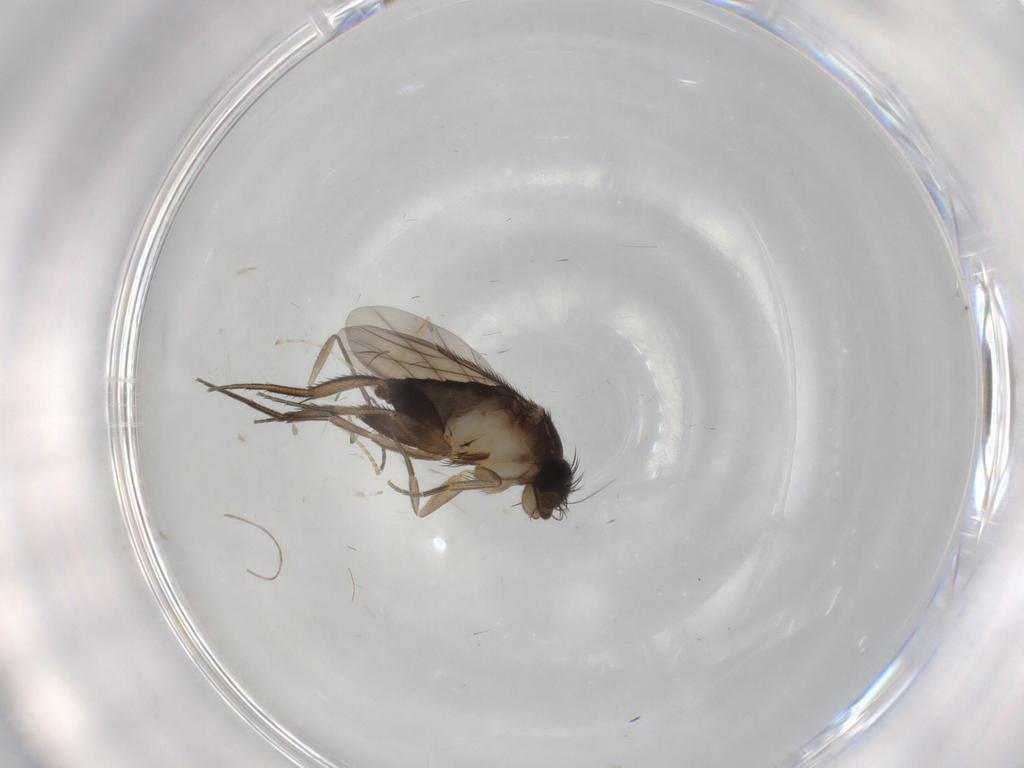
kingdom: Animalia
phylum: Arthropoda
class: Insecta
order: Diptera
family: Phoridae
